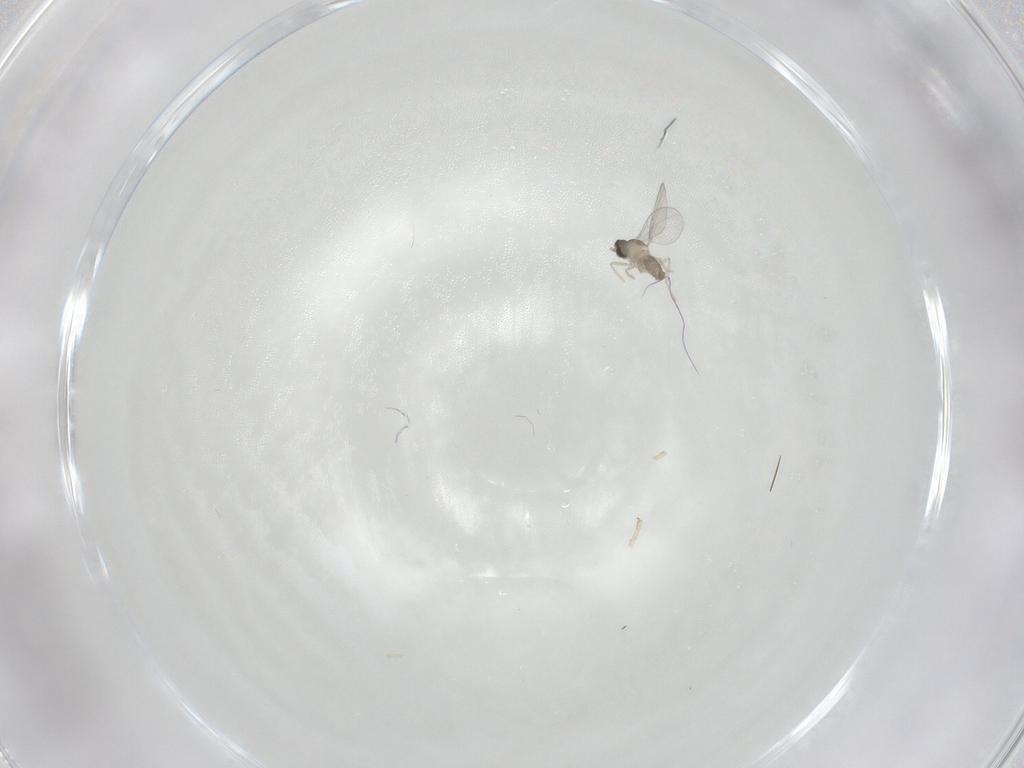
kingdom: Animalia
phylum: Arthropoda
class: Insecta
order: Diptera
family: Cecidomyiidae
